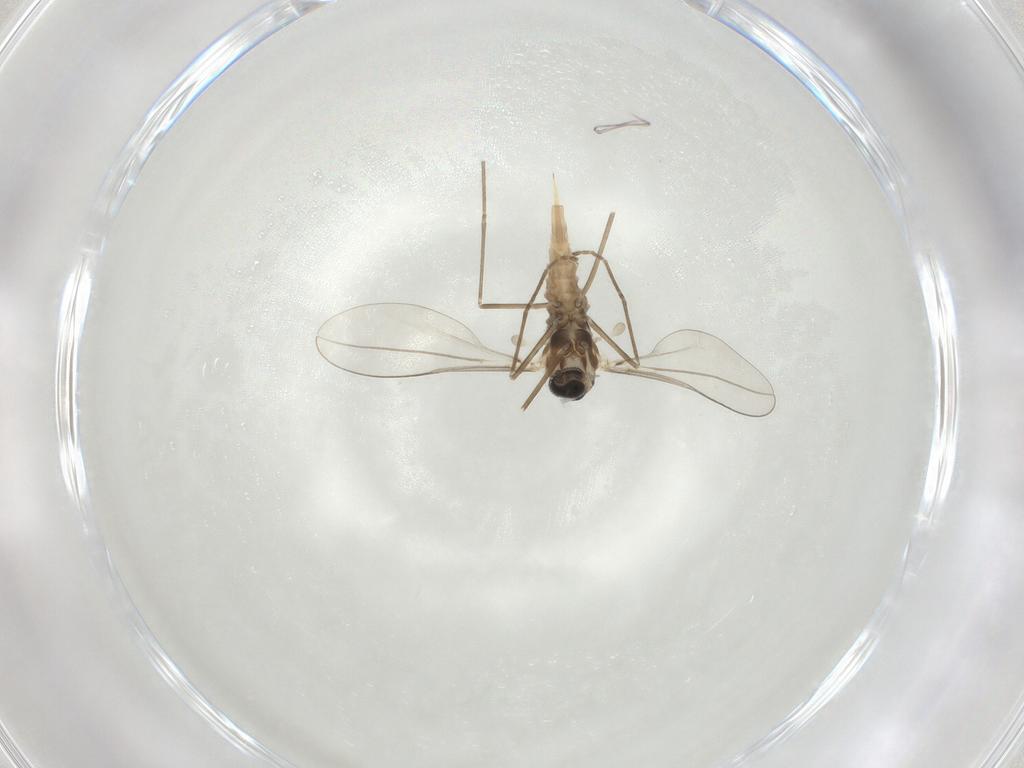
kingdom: Animalia
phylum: Arthropoda
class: Insecta
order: Diptera
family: Cecidomyiidae
